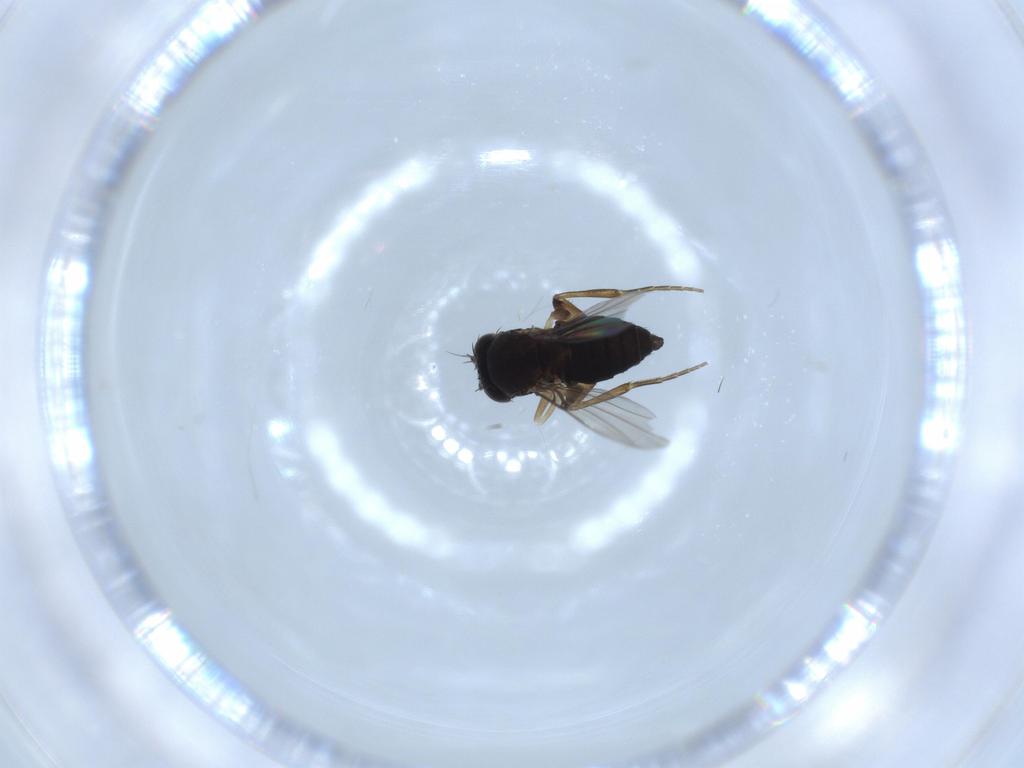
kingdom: Animalia
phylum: Arthropoda
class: Insecta
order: Diptera
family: Phoridae
